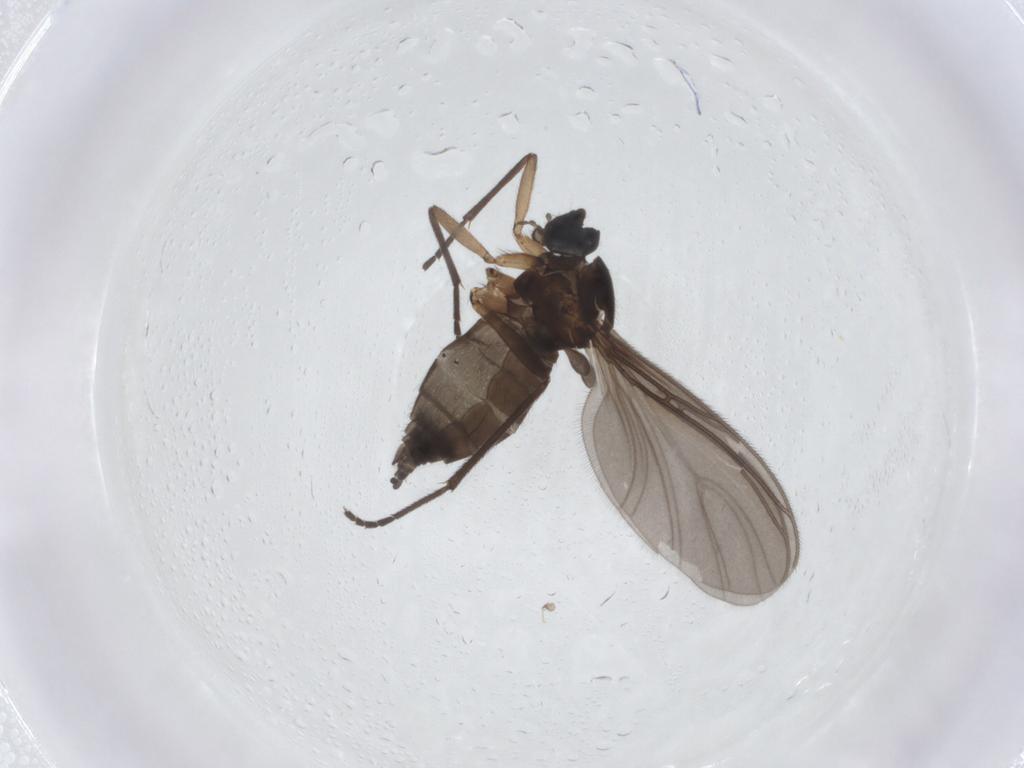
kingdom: Animalia
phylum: Arthropoda
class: Insecta
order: Diptera
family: Sciaridae
